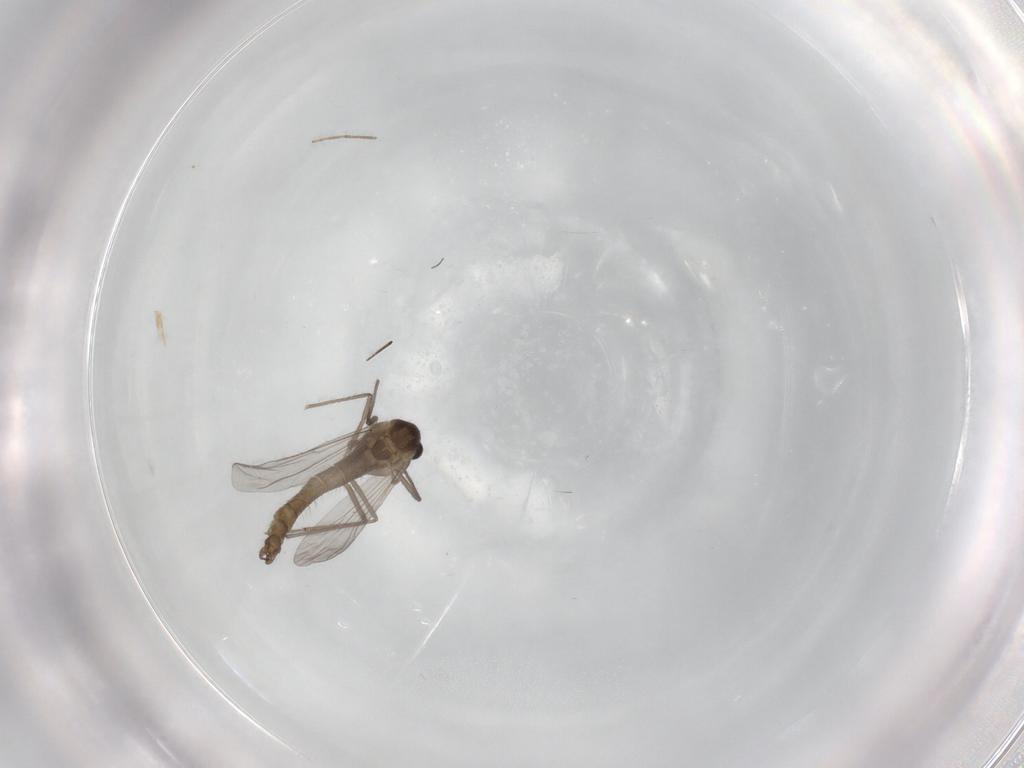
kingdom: Animalia
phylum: Arthropoda
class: Insecta
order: Diptera
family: Chironomidae
